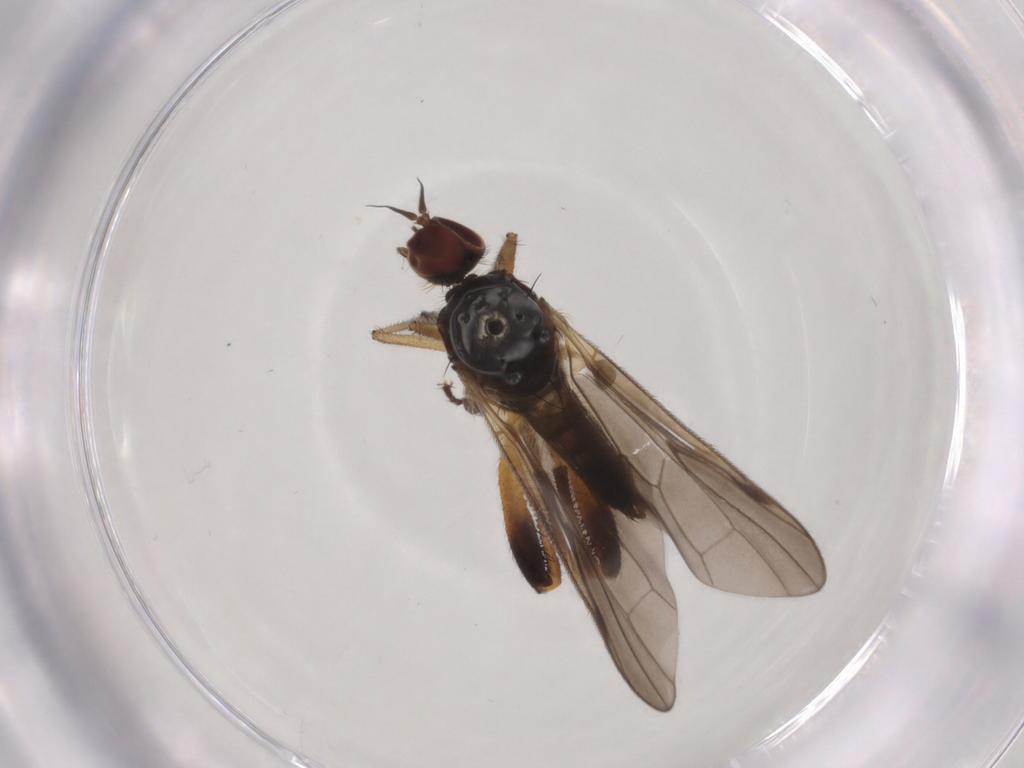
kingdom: Animalia
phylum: Arthropoda
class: Insecta
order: Diptera
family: Hybotidae
